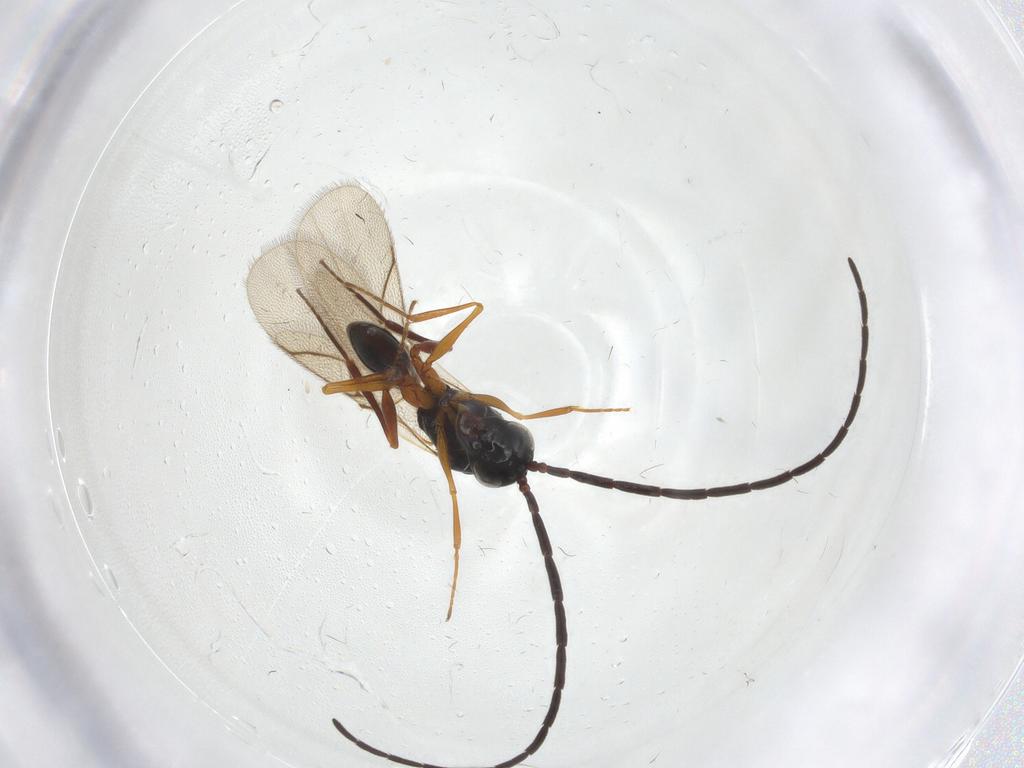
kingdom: Animalia
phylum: Arthropoda
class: Insecta
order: Hymenoptera
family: Figitidae
